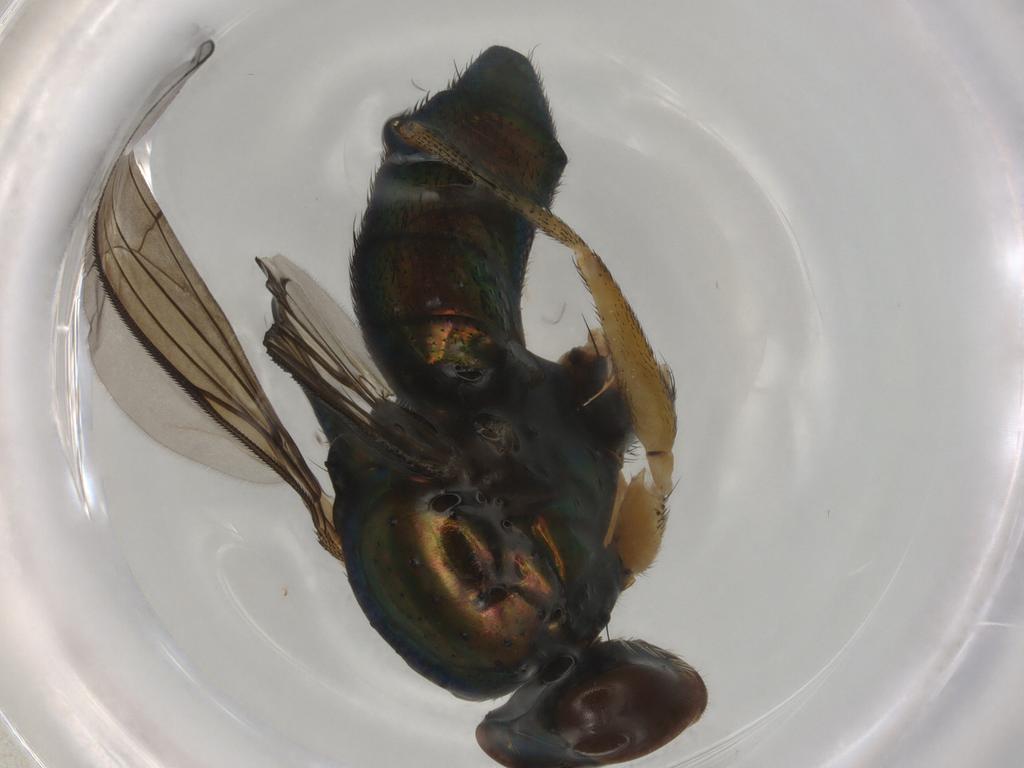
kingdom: Animalia
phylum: Arthropoda
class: Insecta
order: Diptera
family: Dolichopodidae
